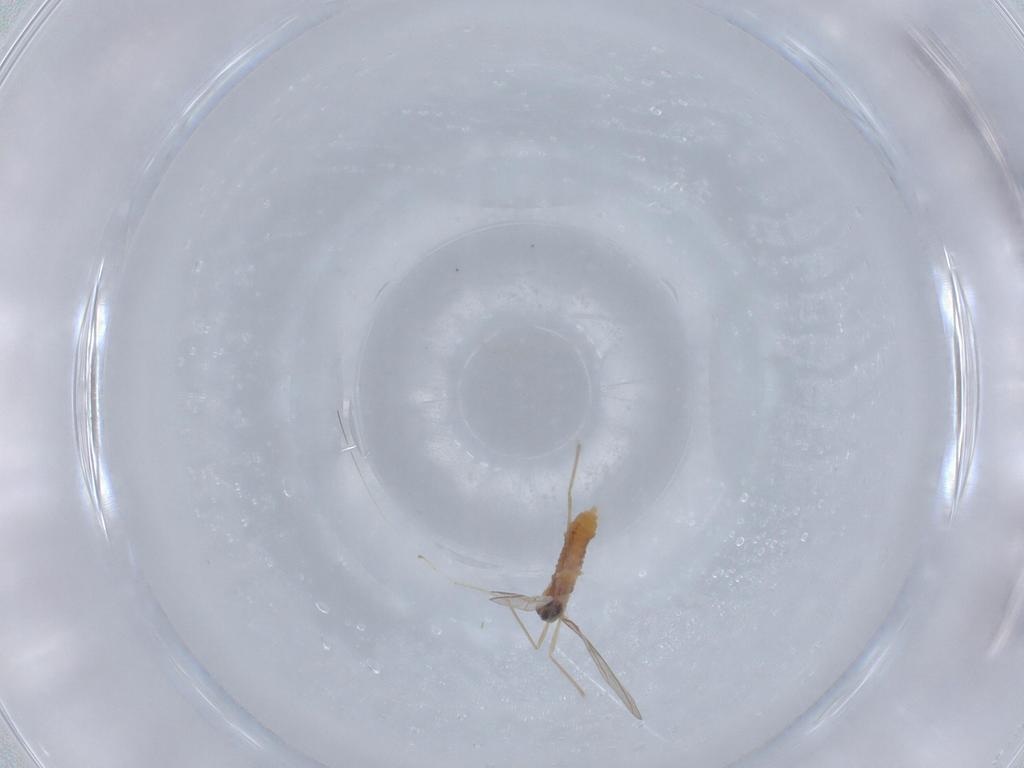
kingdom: Animalia
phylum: Arthropoda
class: Insecta
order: Diptera
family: Cecidomyiidae
